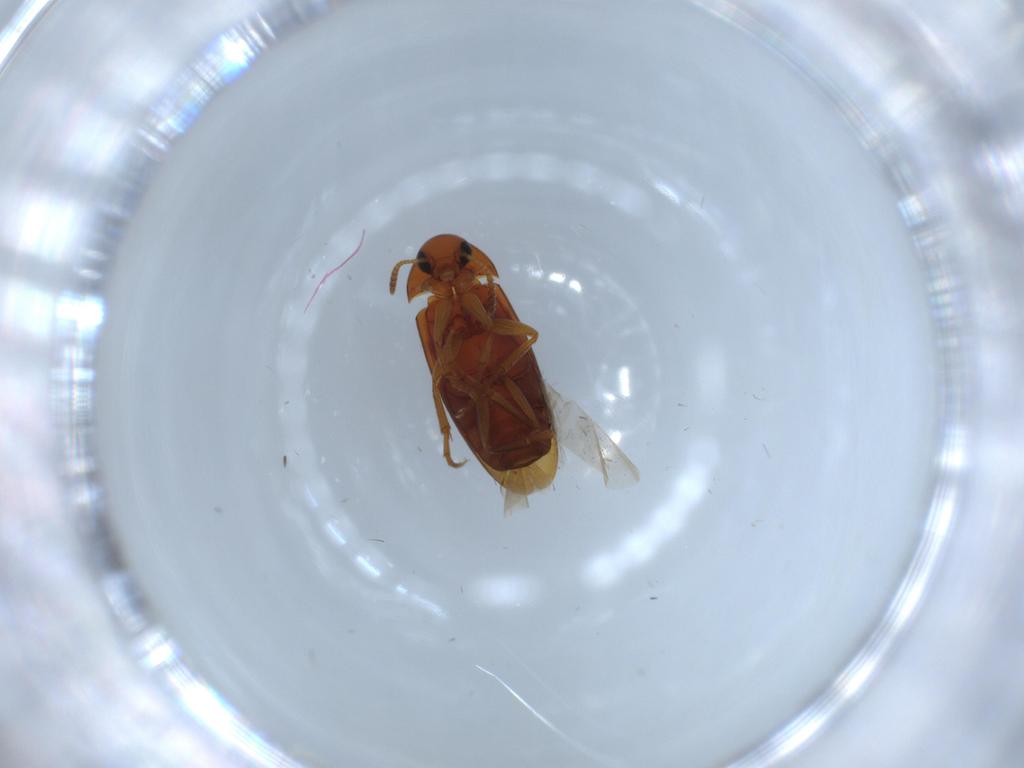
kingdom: Animalia
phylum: Arthropoda
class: Insecta
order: Coleoptera
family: Scraptiidae
